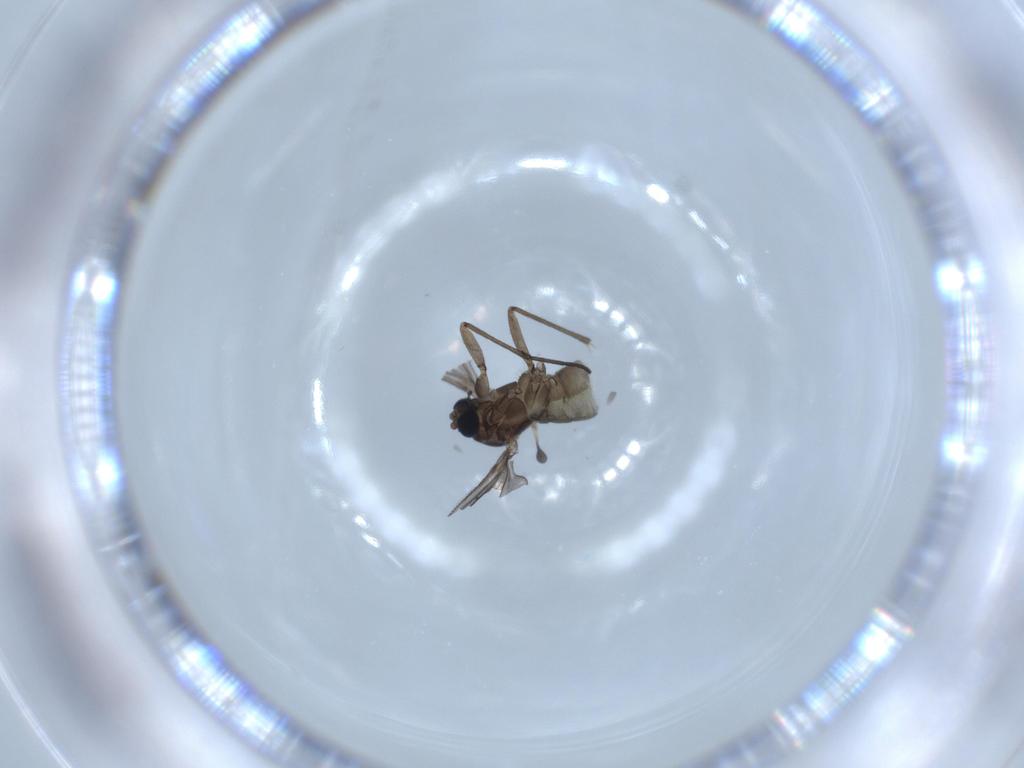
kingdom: Animalia
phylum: Arthropoda
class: Insecta
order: Diptera
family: Sciaridae
